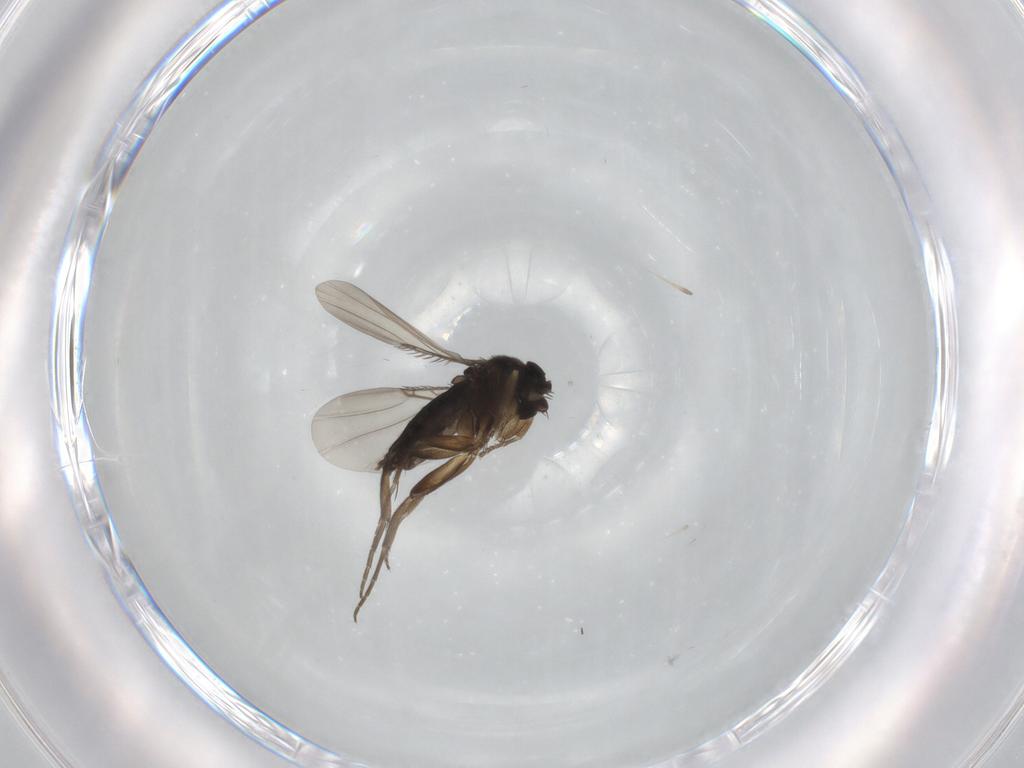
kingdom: Animalia
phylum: Arthropoda
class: Insecta
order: Diptera
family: Phoridae
